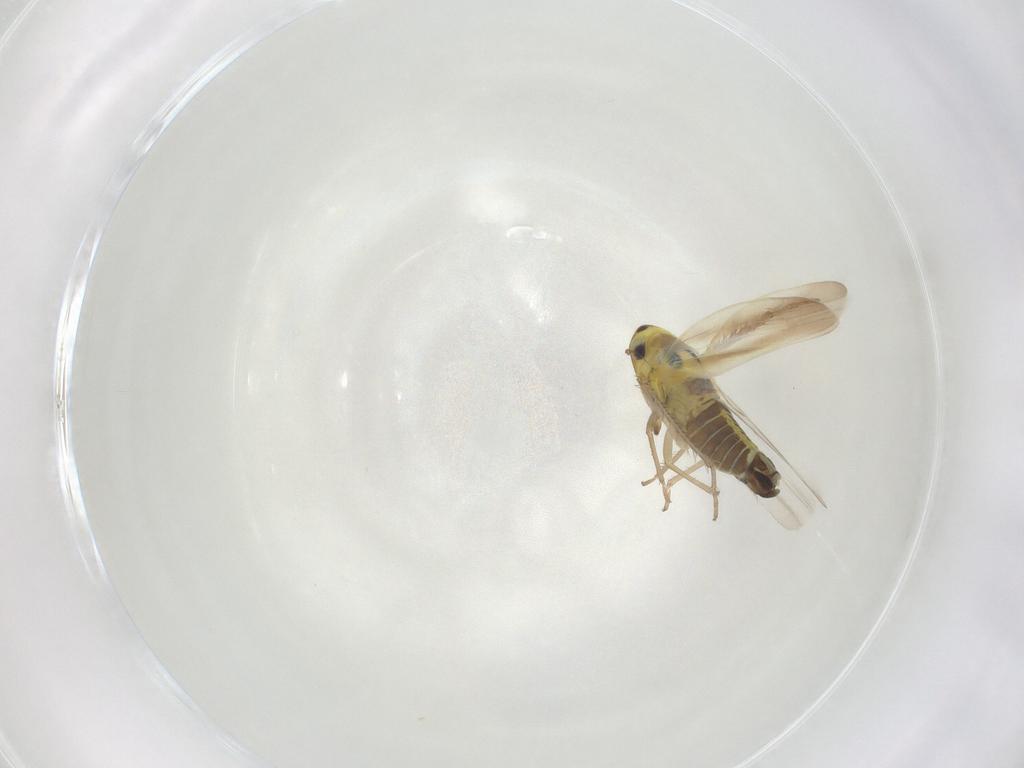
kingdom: Animalia
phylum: Arthropoda
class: Insecta
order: Hemiptera
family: Cicadellidae
